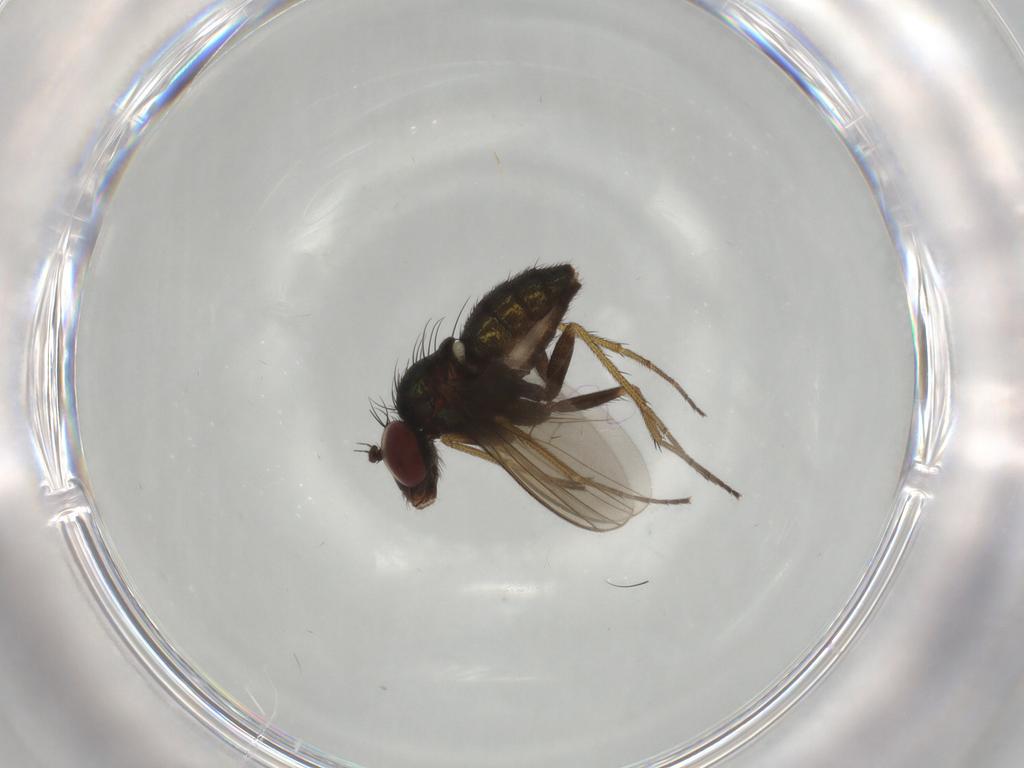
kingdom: Animalia
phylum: Arthropoda
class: Insecta
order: Diptera
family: Dolichopodidae
